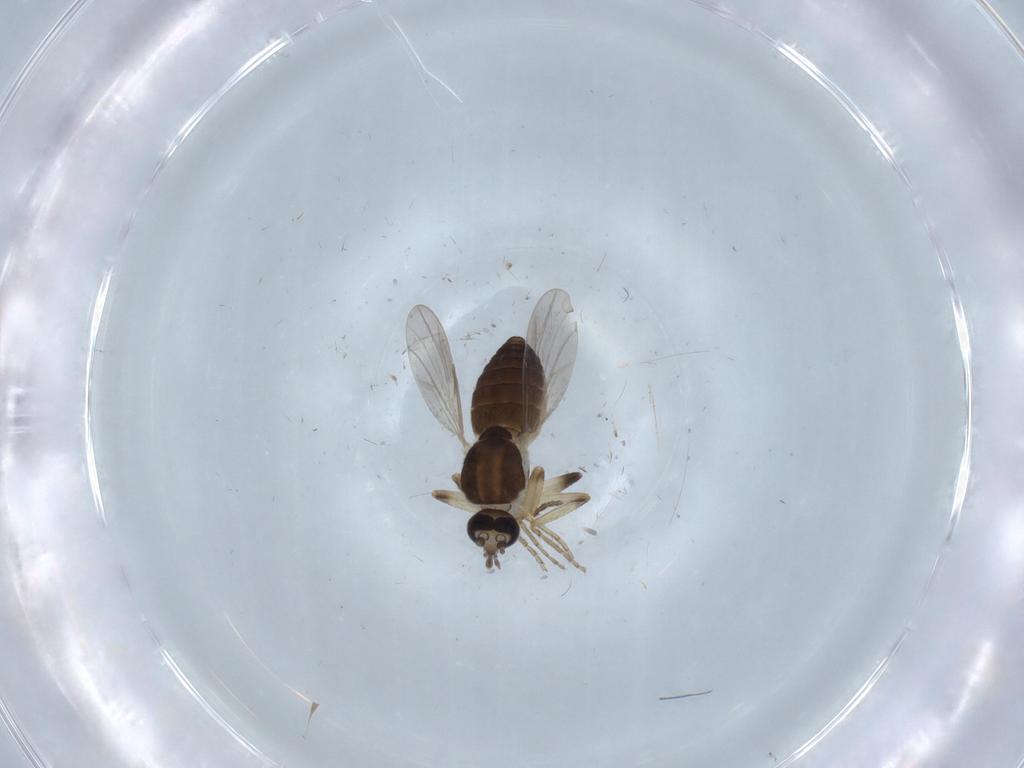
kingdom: Animalia
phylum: Arthropoda
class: Insecta
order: Diptera
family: Ceratopogonidae
